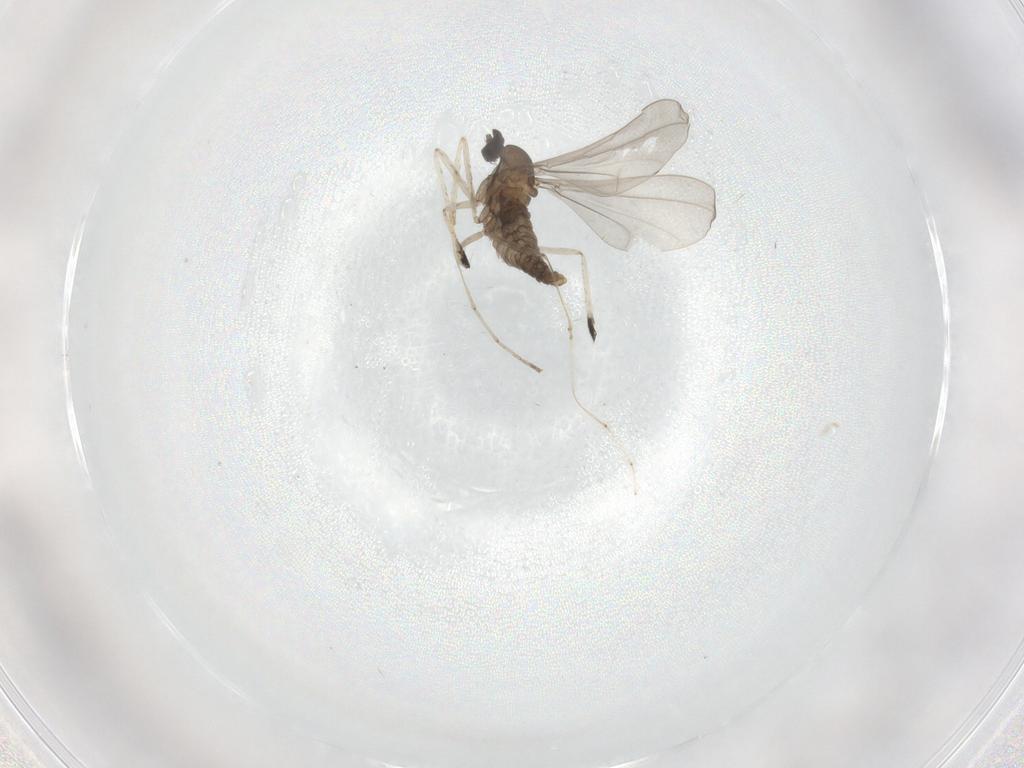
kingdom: Animalia
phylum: Arthropoda
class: Insecta
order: Diptera
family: Cecidomyiidae
